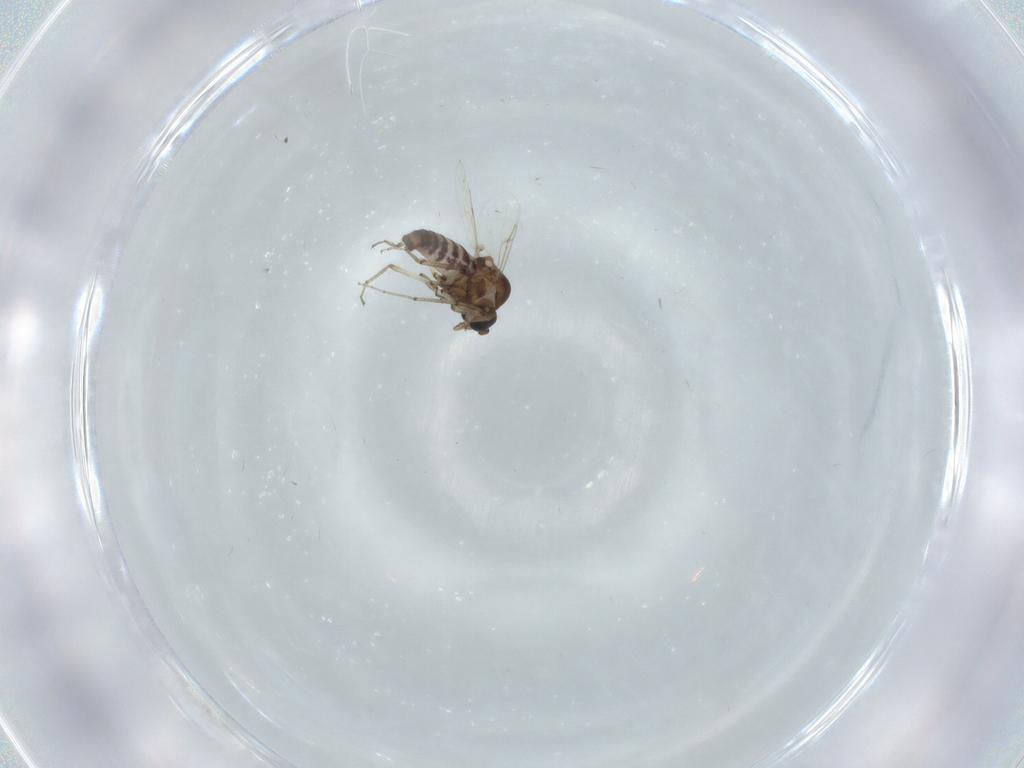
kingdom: Animalia
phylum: Arthropoda
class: Insecta
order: Diptera
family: Ceratopogonidae
